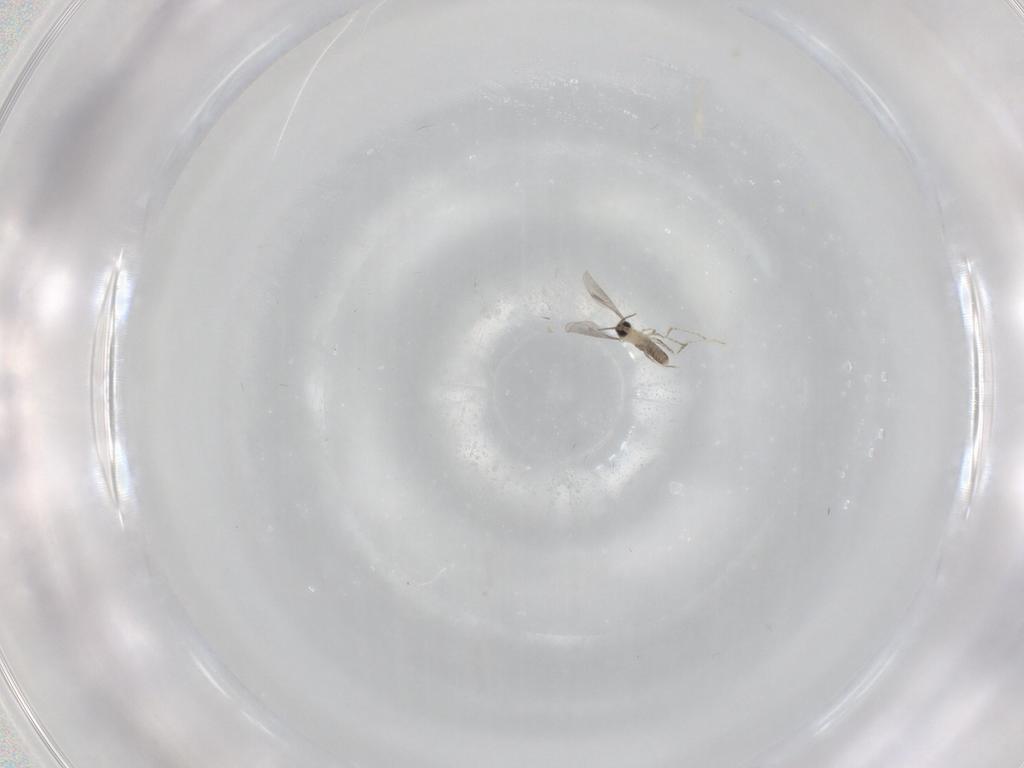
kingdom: Animalia
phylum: Arthropoda
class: Insecta
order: Diptera
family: Cecidomyiidae
